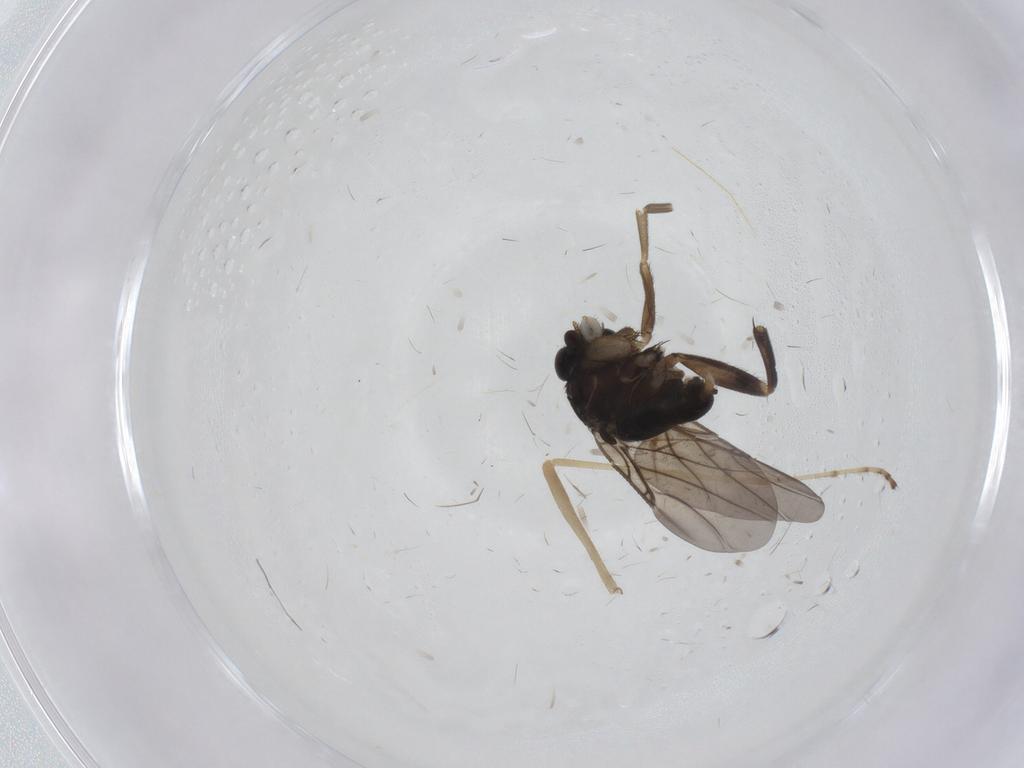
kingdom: Animalia
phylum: Arthropoda
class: Insecta
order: Diptera
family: Phoridae
